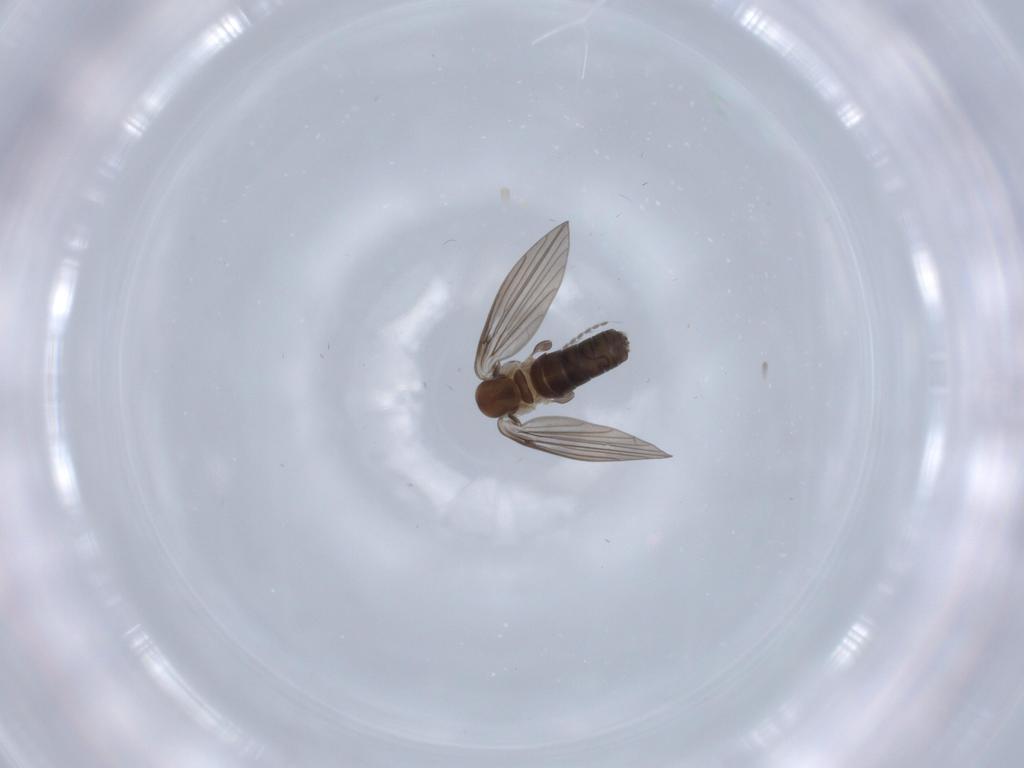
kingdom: Animalia
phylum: Arthropoda
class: Insecta
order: Diptera
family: Psychodidae
